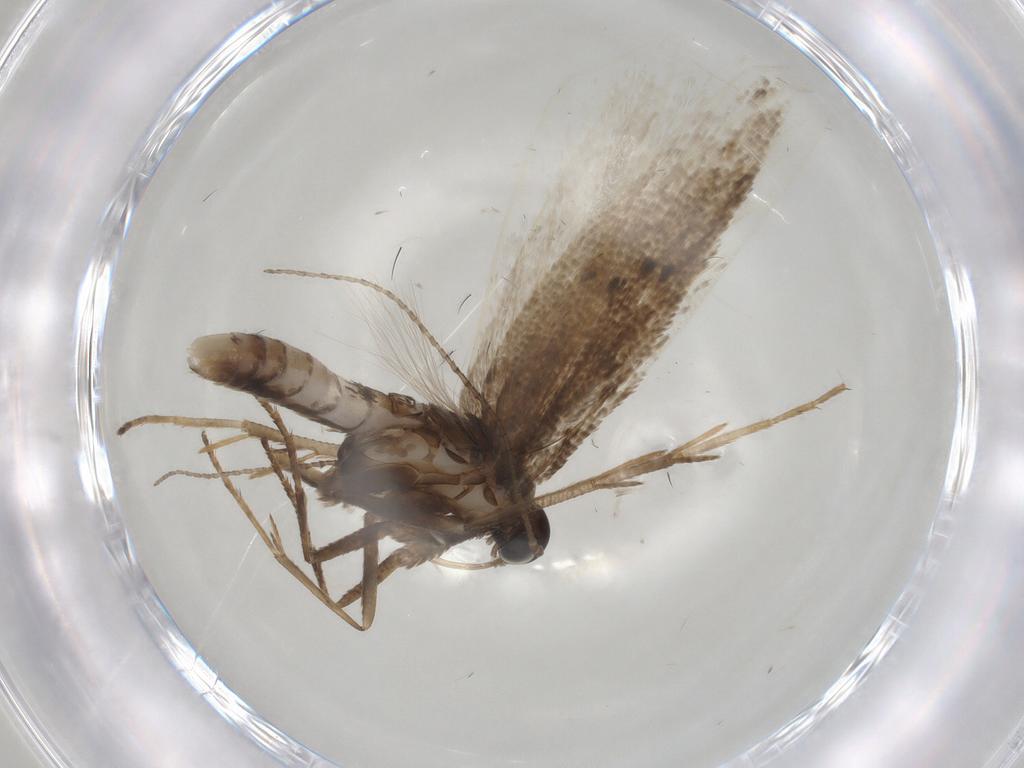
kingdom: Animalia
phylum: Arthropoda
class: Insecta
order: Lepidoptera
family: Gelechiidae
